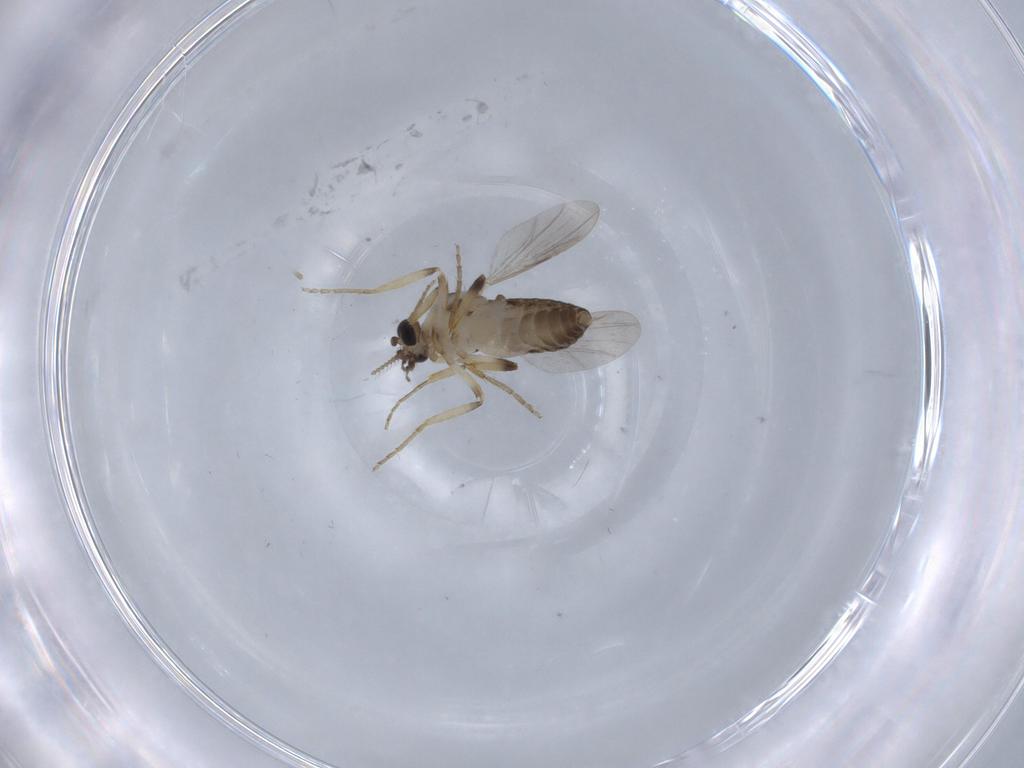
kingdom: Animalia
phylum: Arthropoda
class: Insecta
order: Diptera
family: Ceratopogonidae
